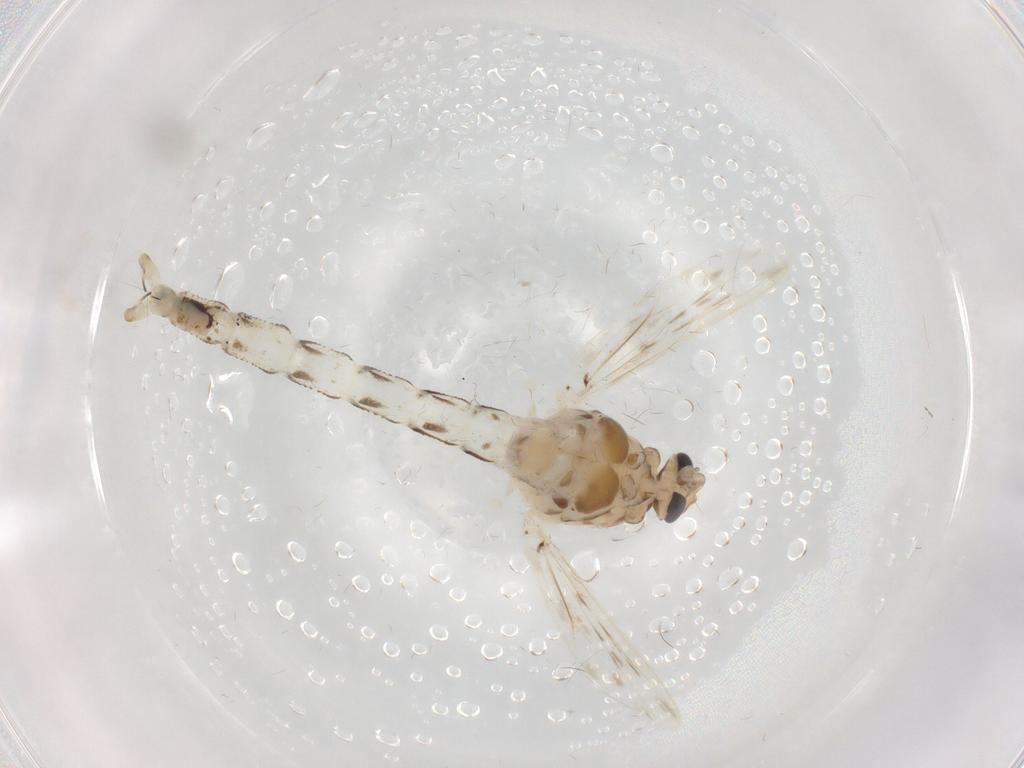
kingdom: Animalia
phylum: Arthropoda
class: Insecta
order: Diptera
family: Chaoboridae
